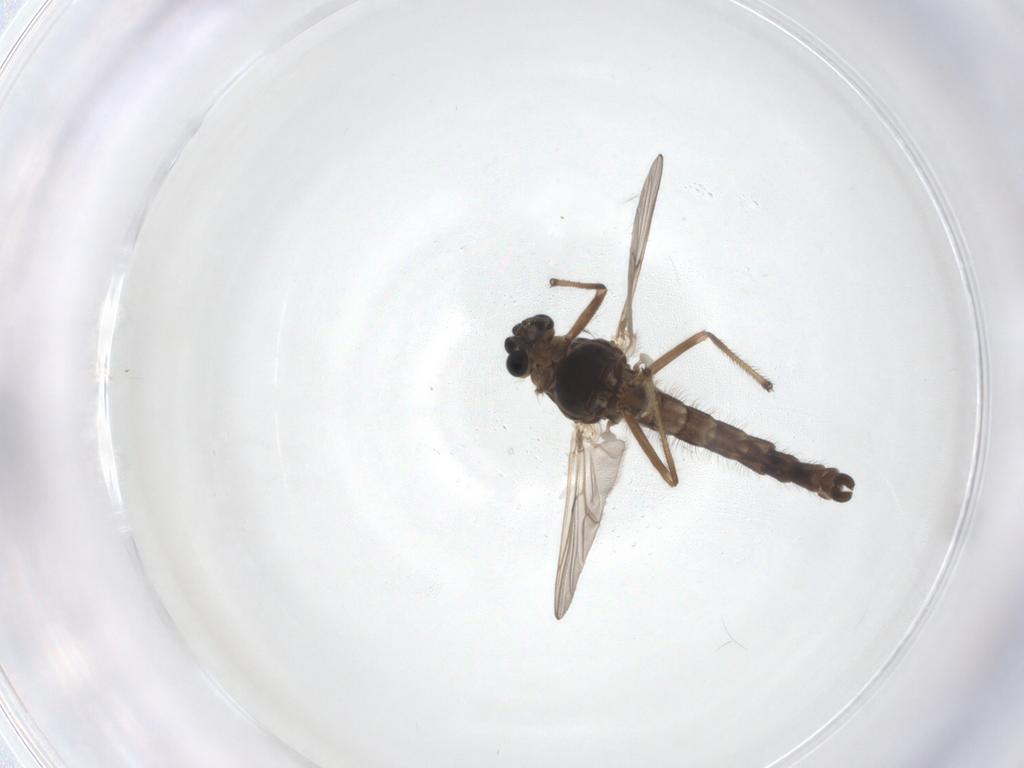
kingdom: Animalia
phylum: Arthropoda
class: Insecta
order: Diptera
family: Chironomidae
